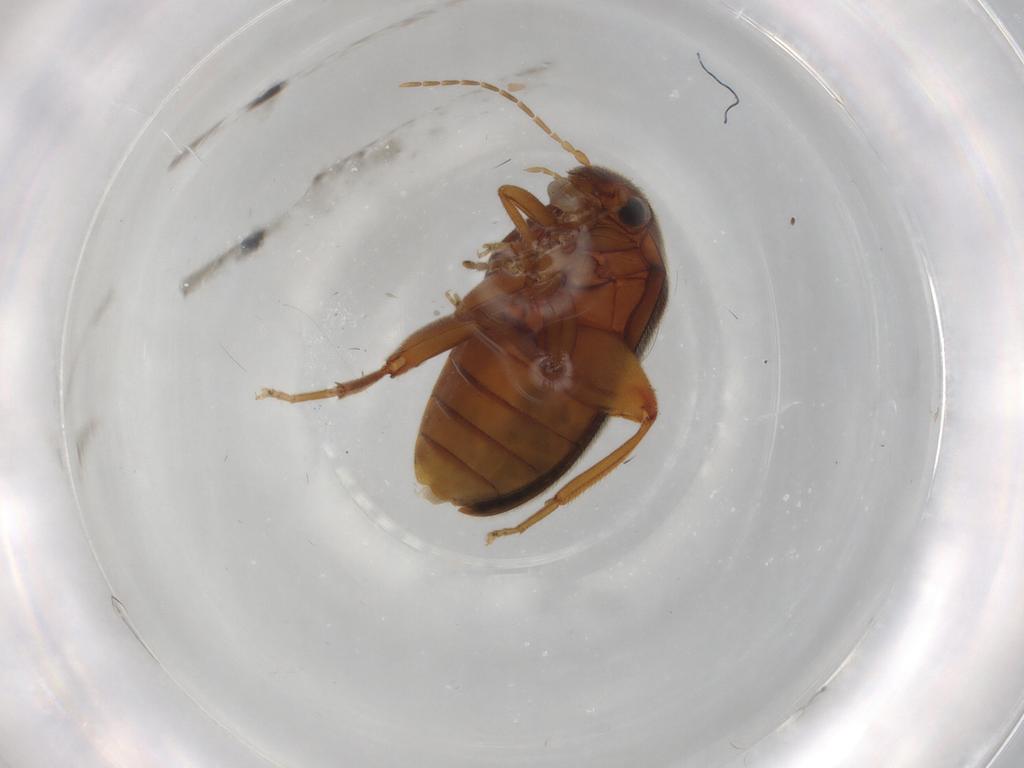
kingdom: Animalia
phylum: Arthropoda
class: Insecta
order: Coleoptera
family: Scirtidae
